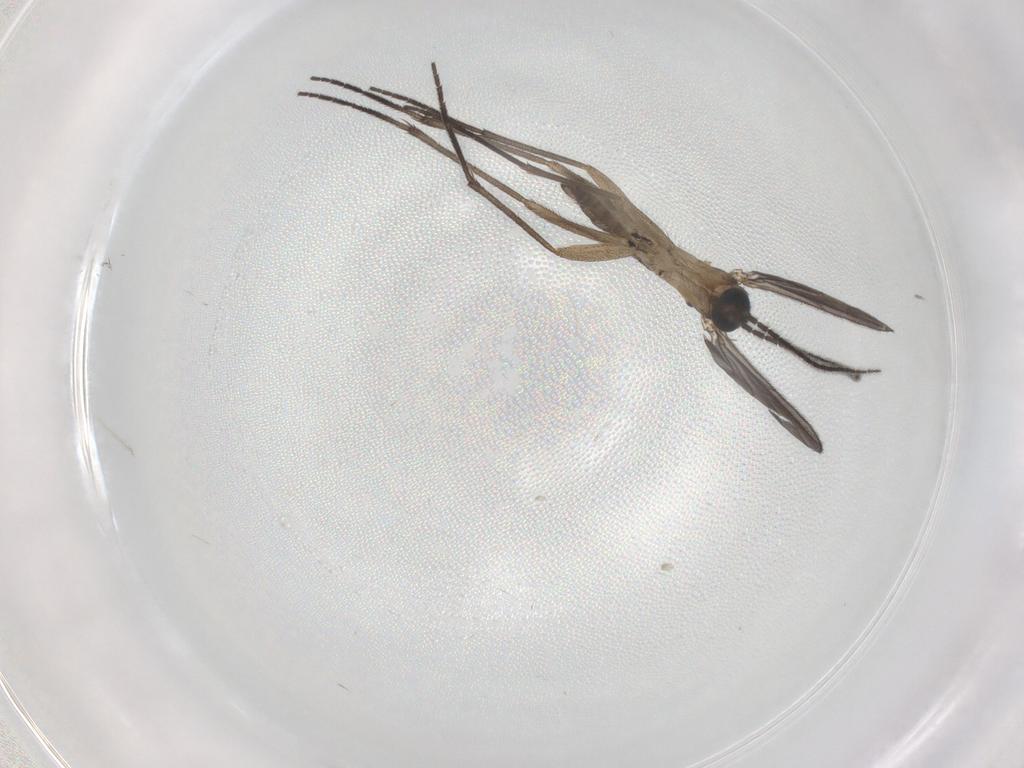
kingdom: Animalia
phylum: Arthropoda
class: Insecta
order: Diptera
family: Sciaridae
